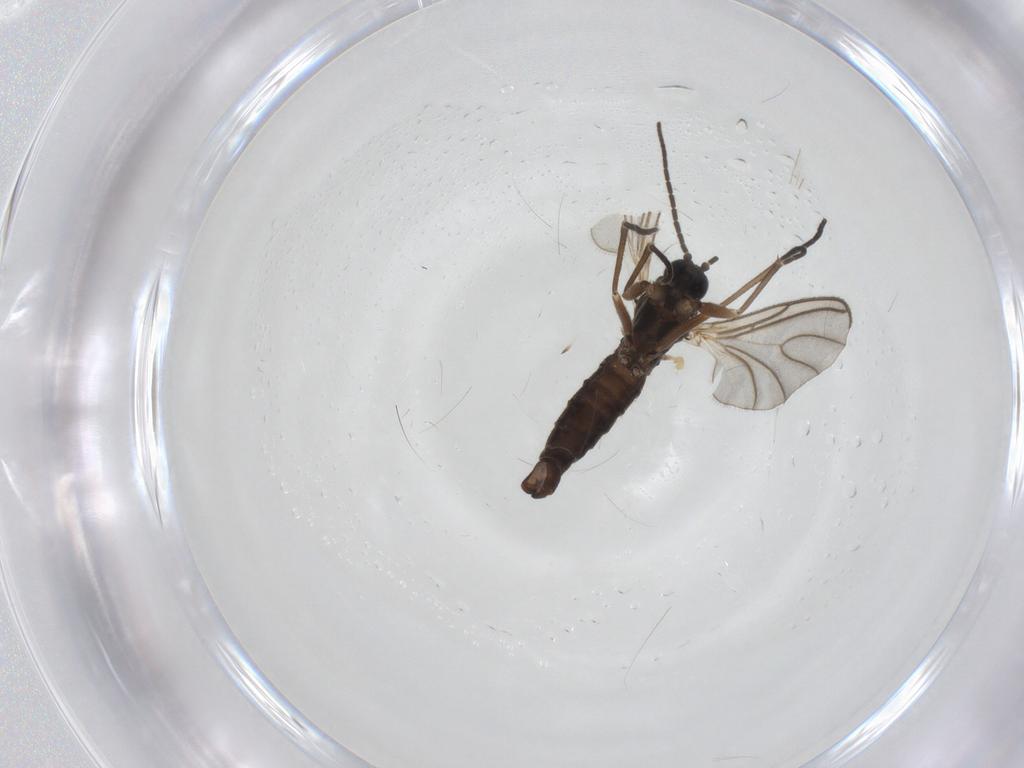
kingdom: Animalia
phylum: Arthropoda
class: Insecta
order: Diptera
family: Sciaridae
